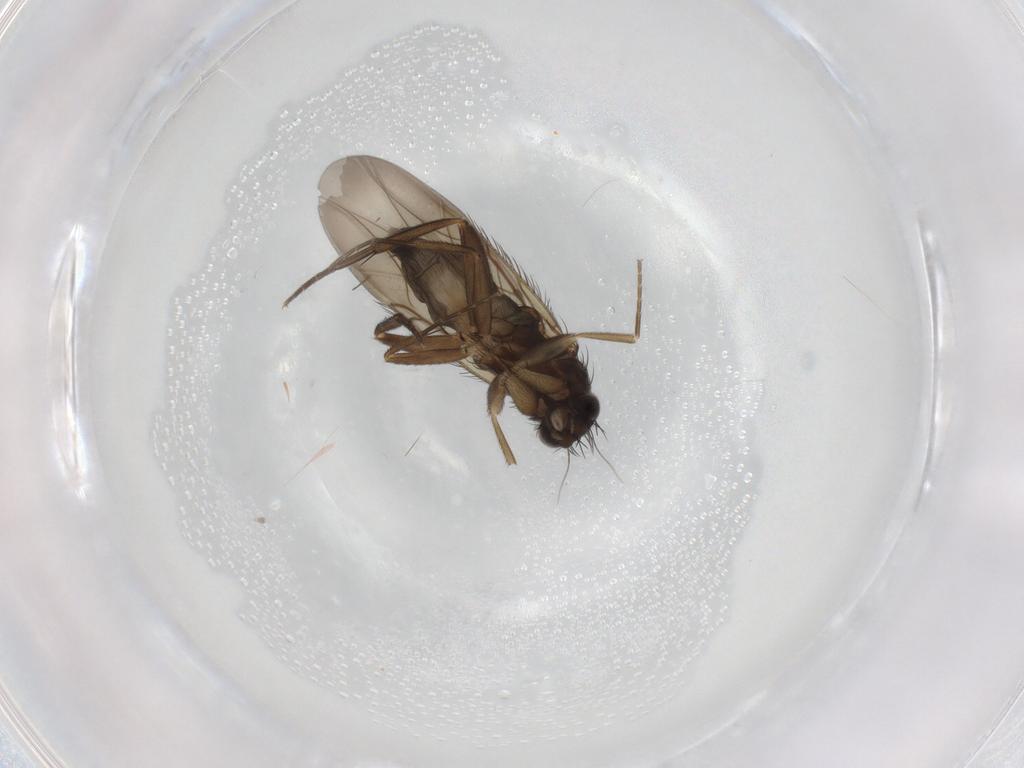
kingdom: Animalia
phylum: Arthropoda
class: Insecta
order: Diptera
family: Phoridae
